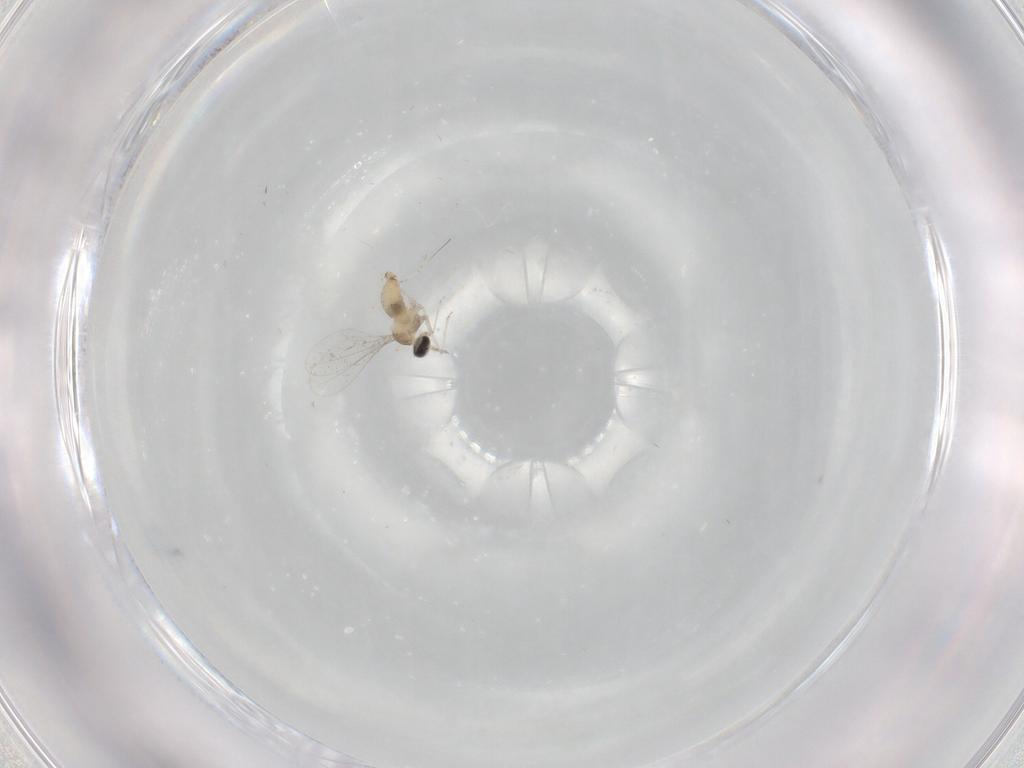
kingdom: Animalia
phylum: Arthropoda
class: Insecta
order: Diptera
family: Cecidomyiidae
